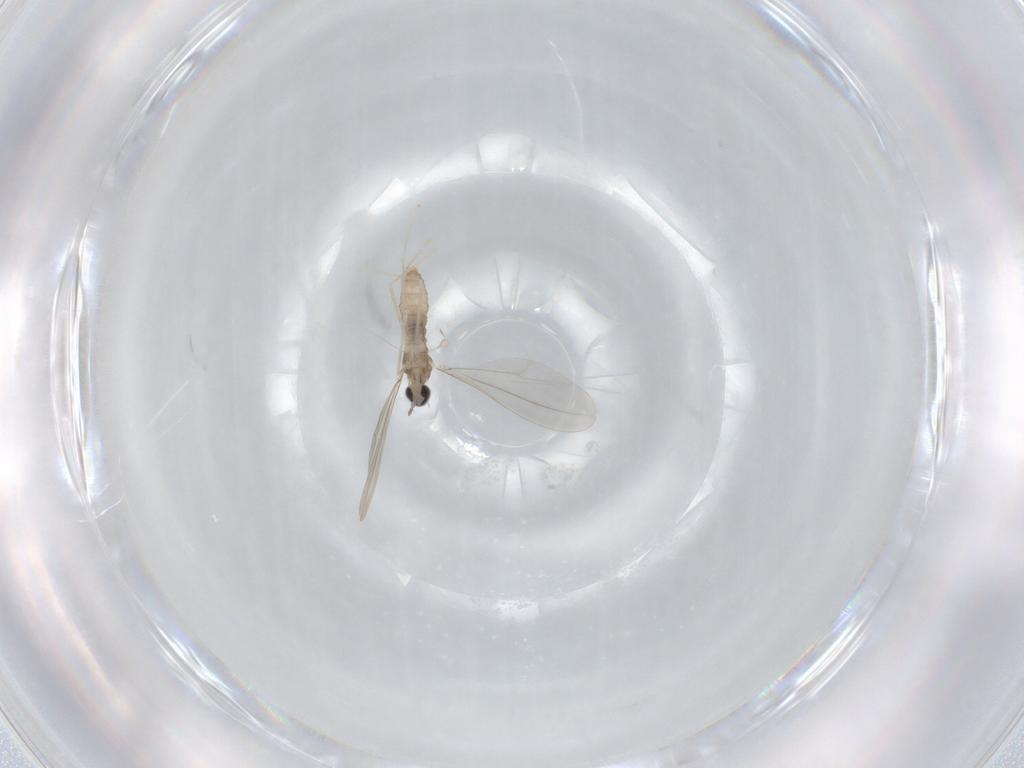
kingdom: Animalia
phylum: Arthropoda
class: Insecta
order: Diptera
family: Cecidomyiidae
